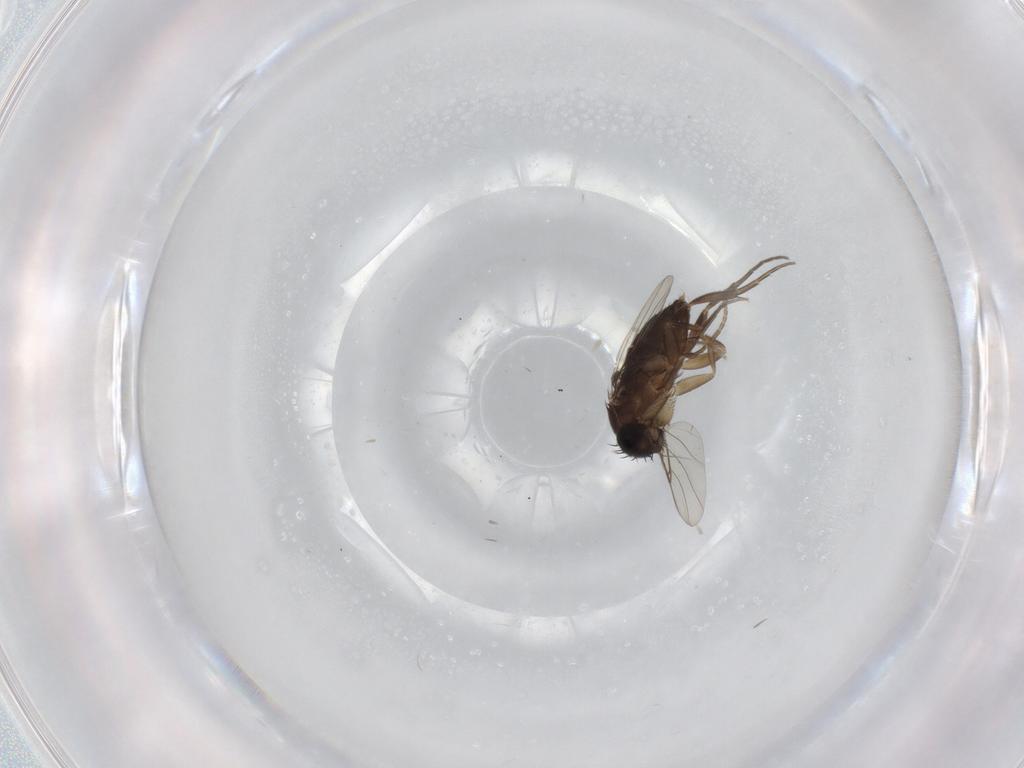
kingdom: Animalia
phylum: Arthropoda
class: Insecta
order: Diptera
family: Phoridae
